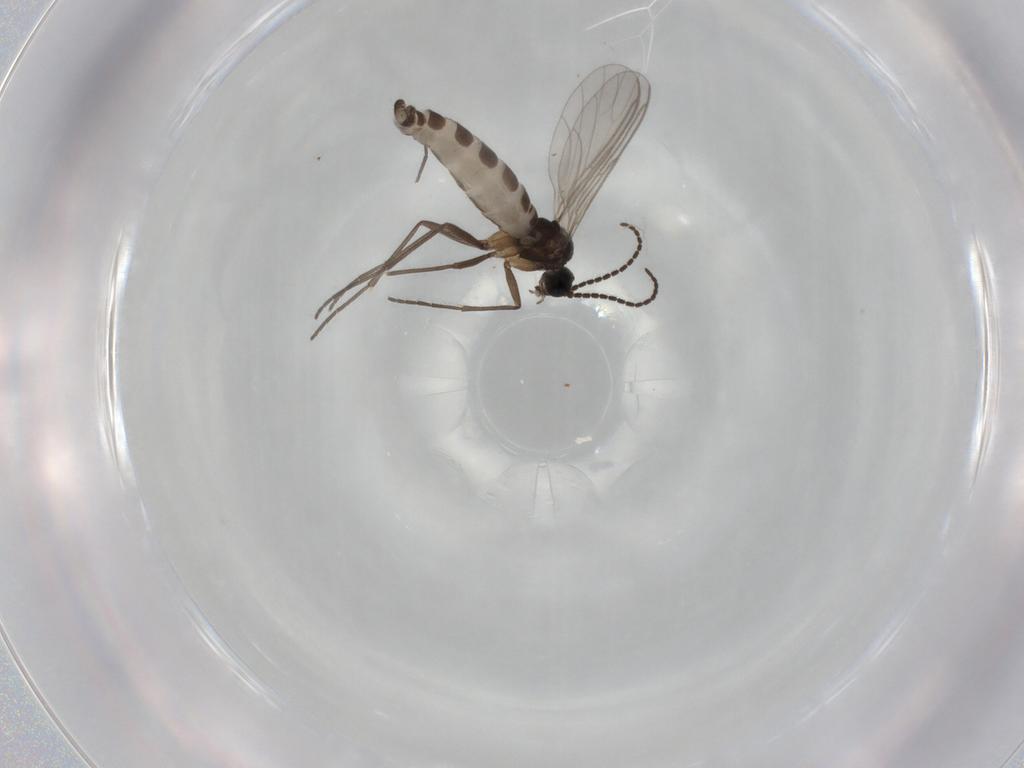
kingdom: Animalia
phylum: Arthropoda
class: Insecta
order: Diptera
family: Sciaridae
